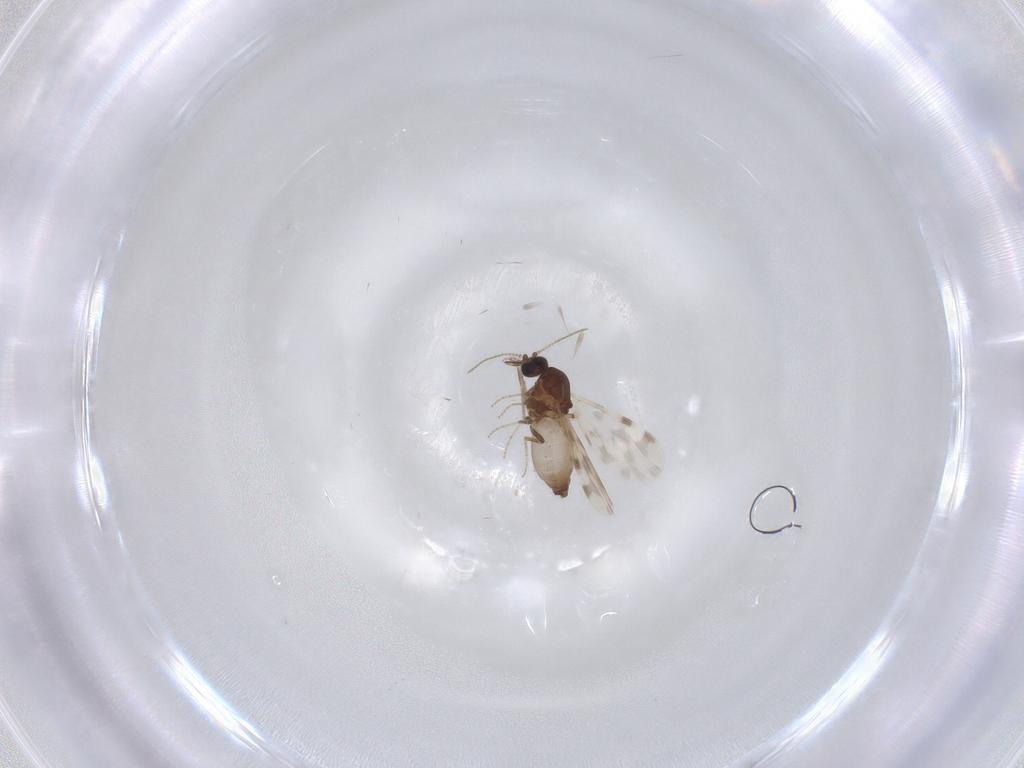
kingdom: Animalia
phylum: Arthropoda
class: Insecta
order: Diptera
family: Ceratopogonidae
